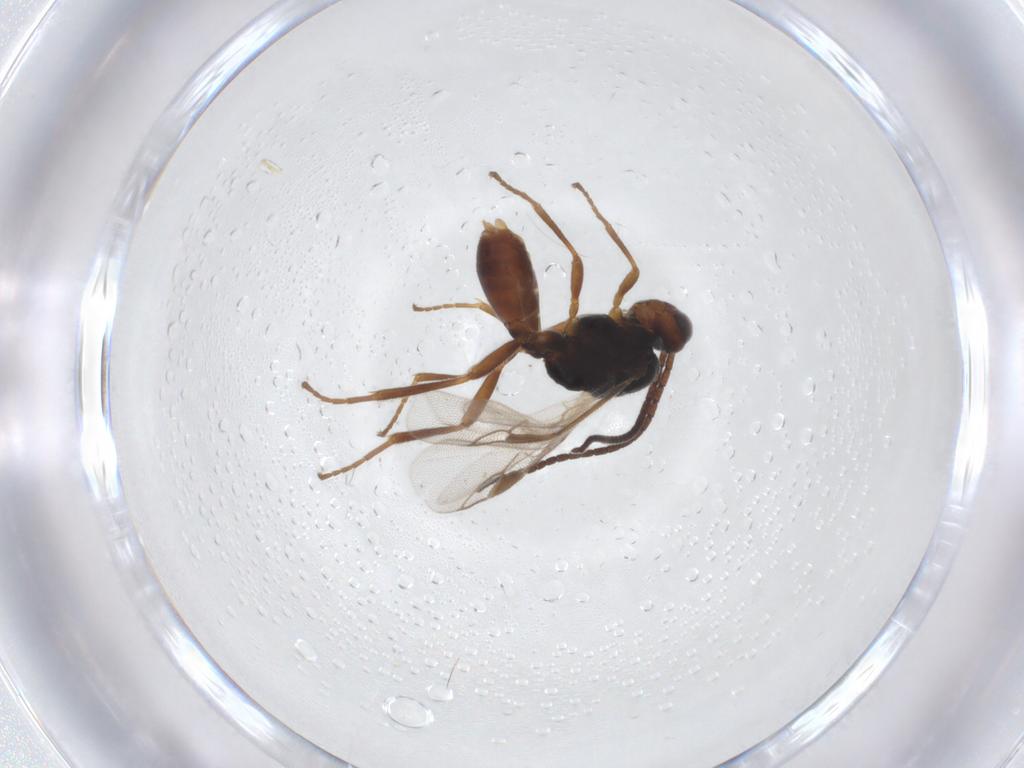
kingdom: Animalia
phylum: Arthropoda
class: Insecta
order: Hymenoptera
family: Braconidae
